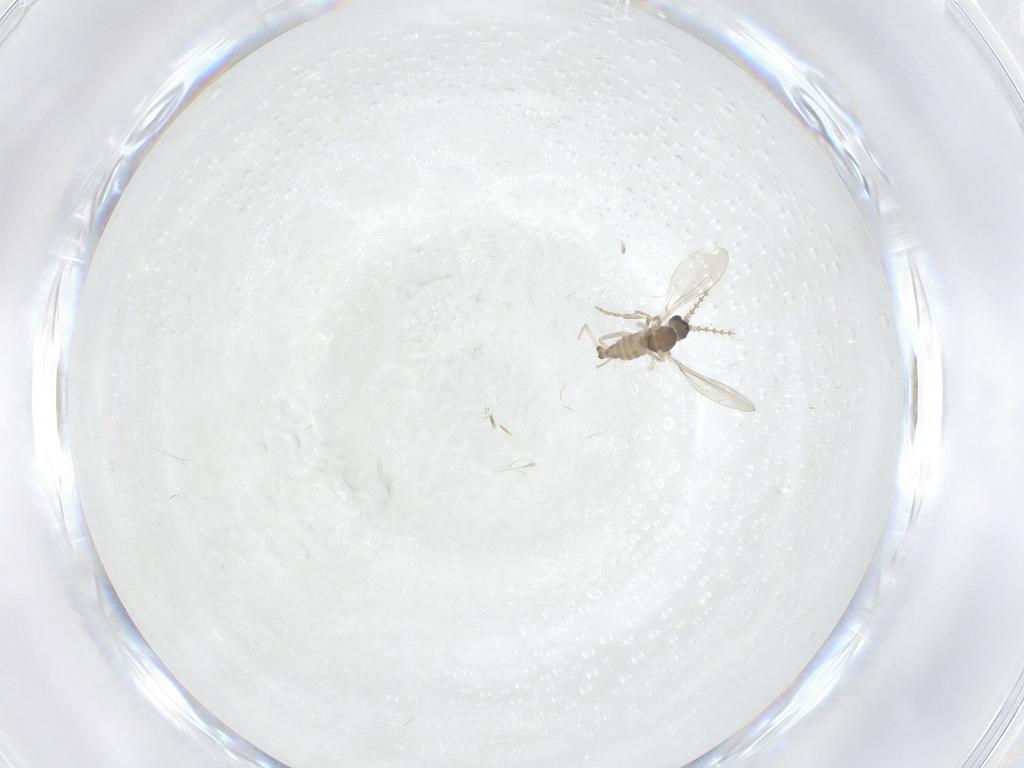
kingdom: Animalia
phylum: Arthropoda
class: Insecta
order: Diptera
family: Cecidomyiidae
